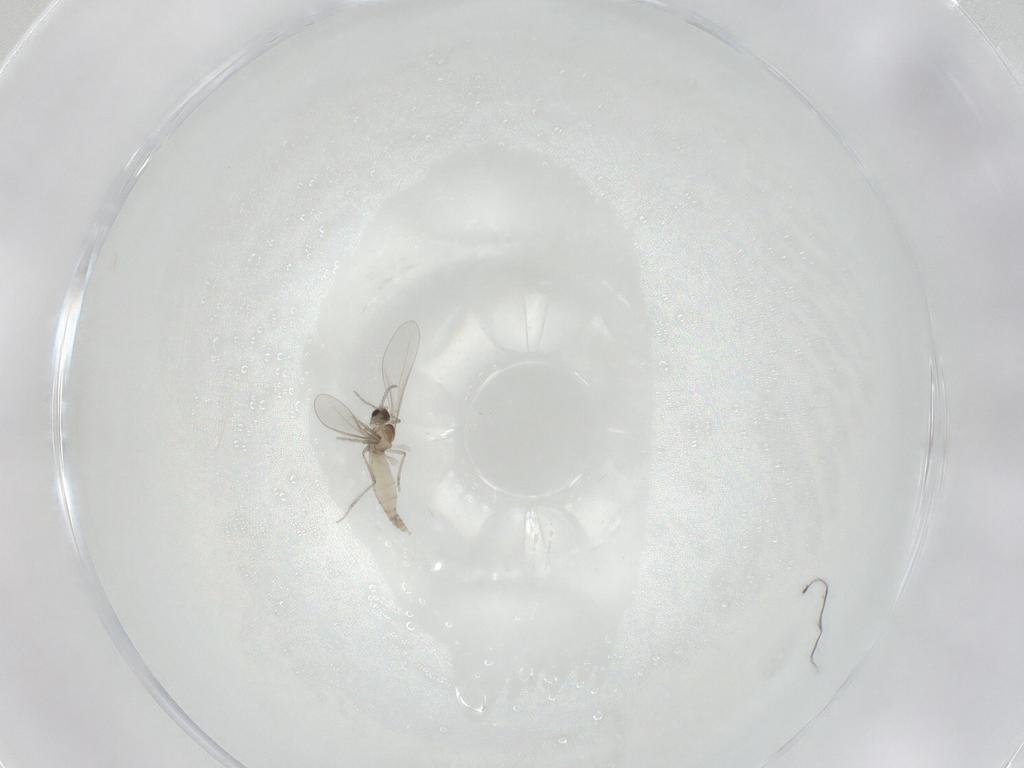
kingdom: Animalia
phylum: Arthropoda
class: Insecta
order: Diptera
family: Cecidomyiidae
